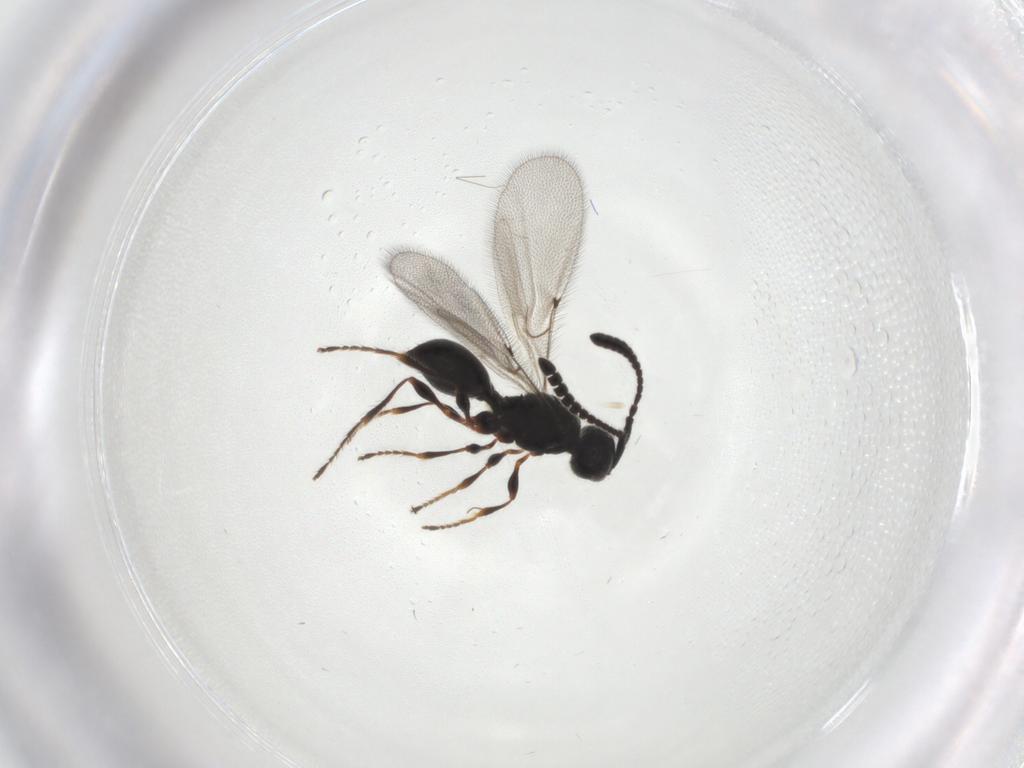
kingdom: Animalia
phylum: Arthropoda
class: Insecta
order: Hymenoptera
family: Diapriidae
